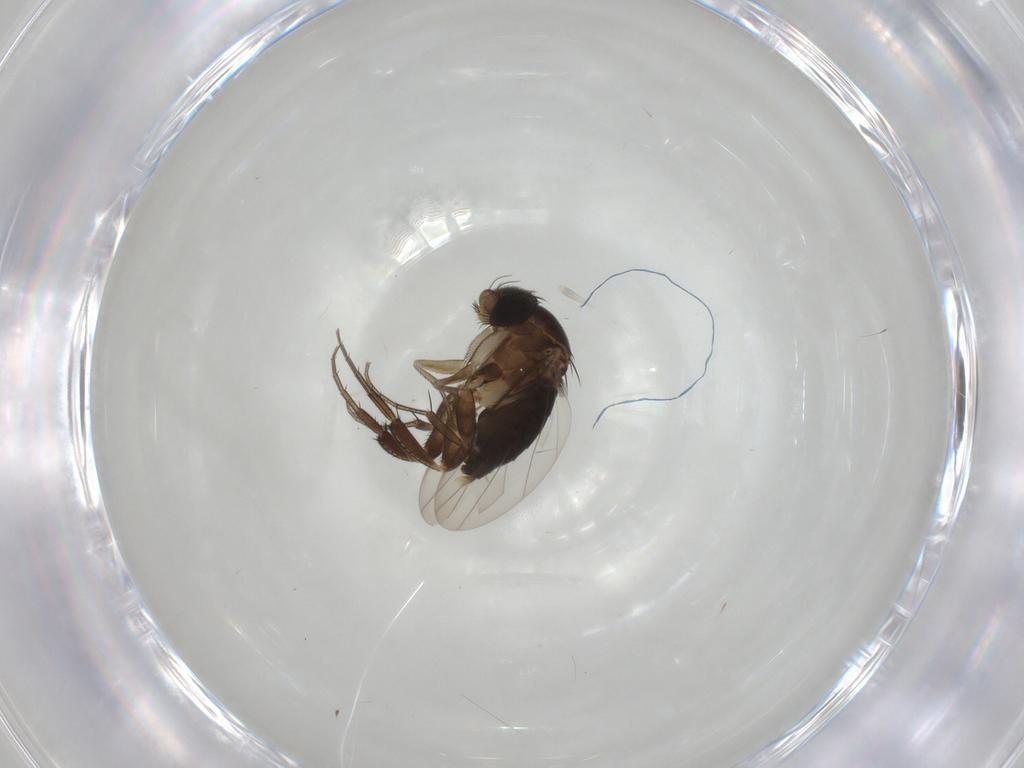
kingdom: Animalia
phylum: Arthropoda
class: Insecta
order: Diptera
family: Phoridae
